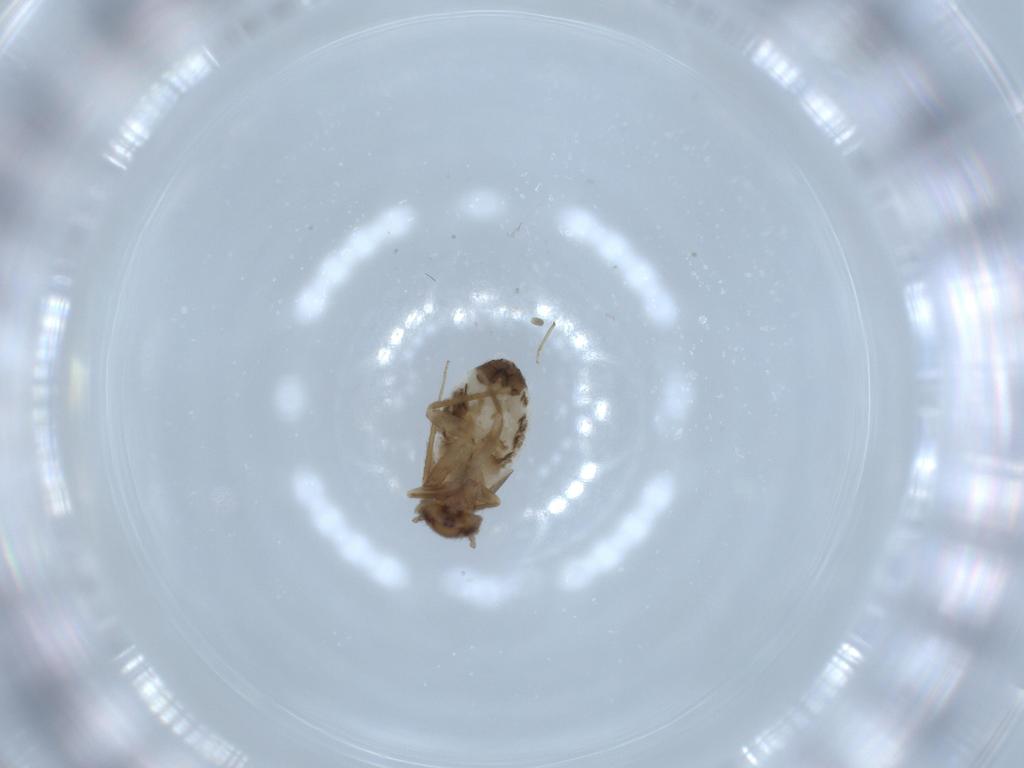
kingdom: Animalia
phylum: Arthropoda
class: Insecta
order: Psocodea
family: Lepidopsocidae
